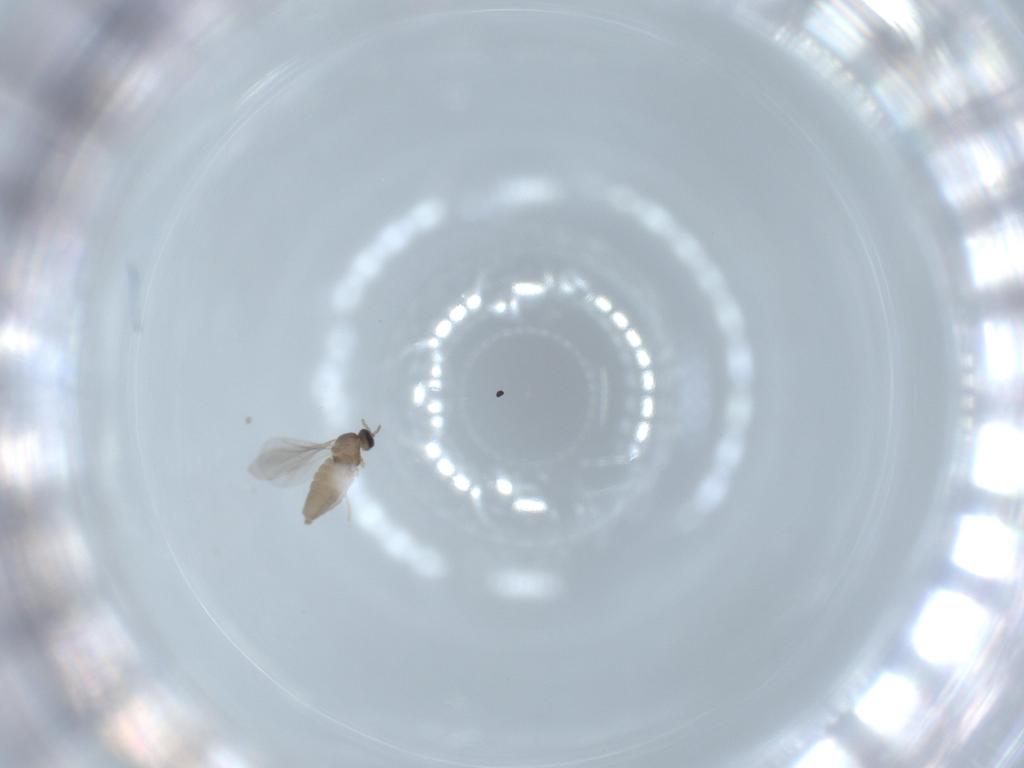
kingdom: Animalia
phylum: Arthropoda
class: Insecta
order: Diptera
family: Cecidomyiidae
